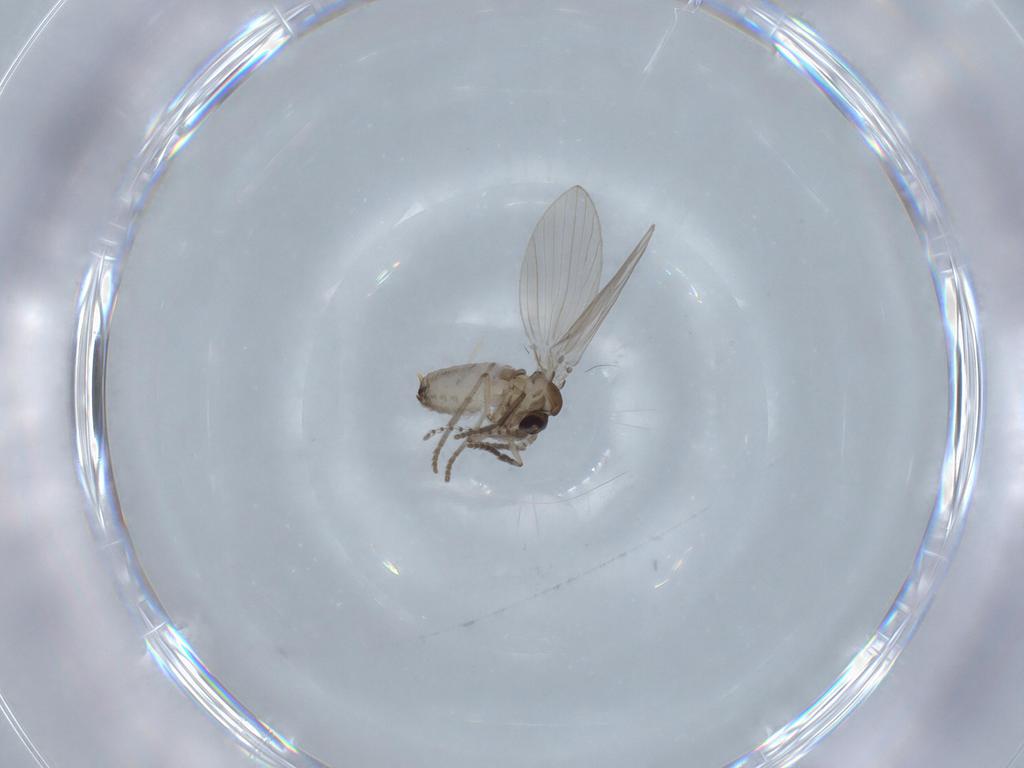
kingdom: Animalia
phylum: Arthropoda
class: Insecta
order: Diptera
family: Psychodidae
